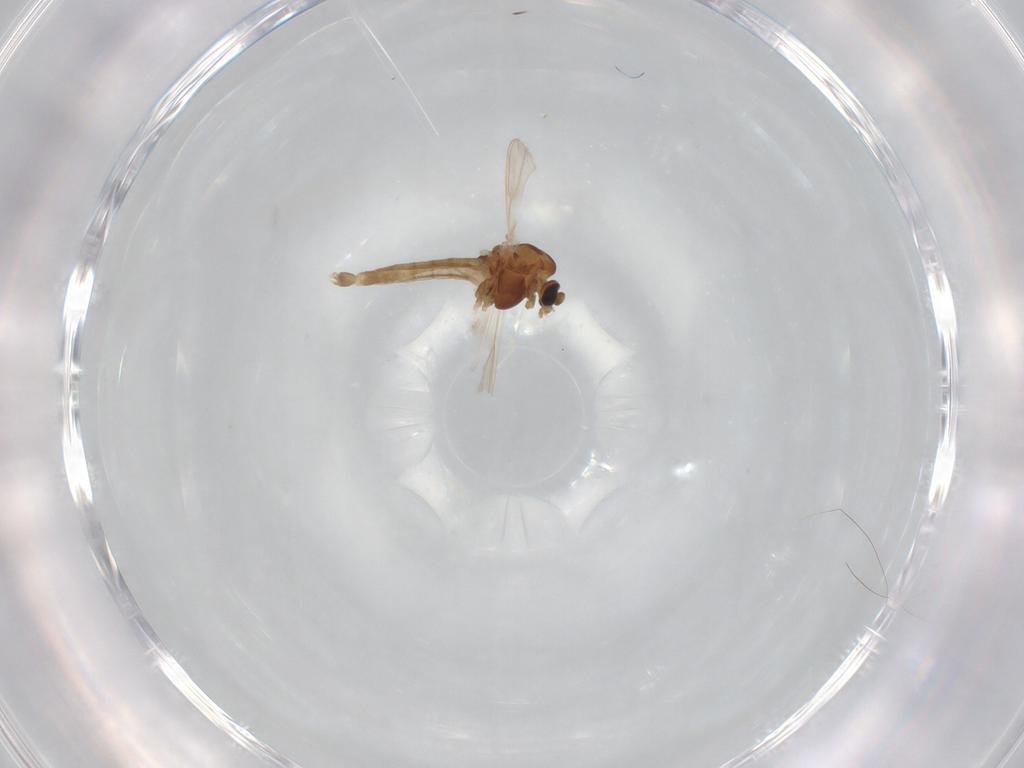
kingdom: Animalia
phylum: Arthropoda
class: Insecta
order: Diptera
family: Chironomidae
